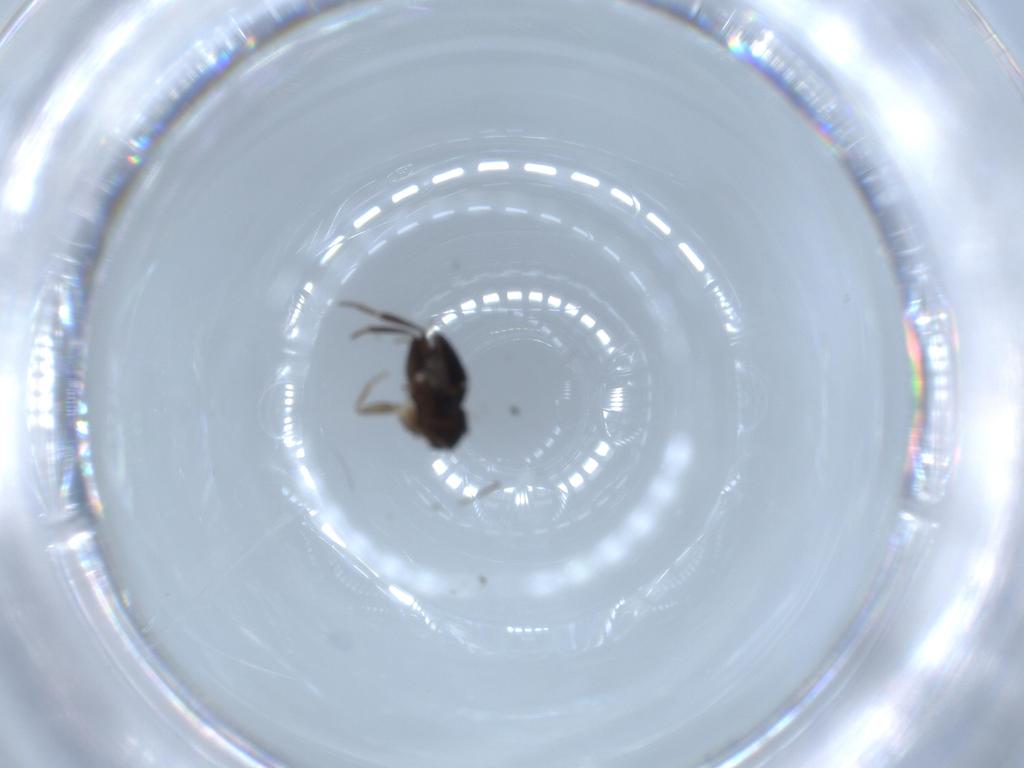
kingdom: Animalia
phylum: Arthropoda
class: Insecta
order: Diptera
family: Phoridae
